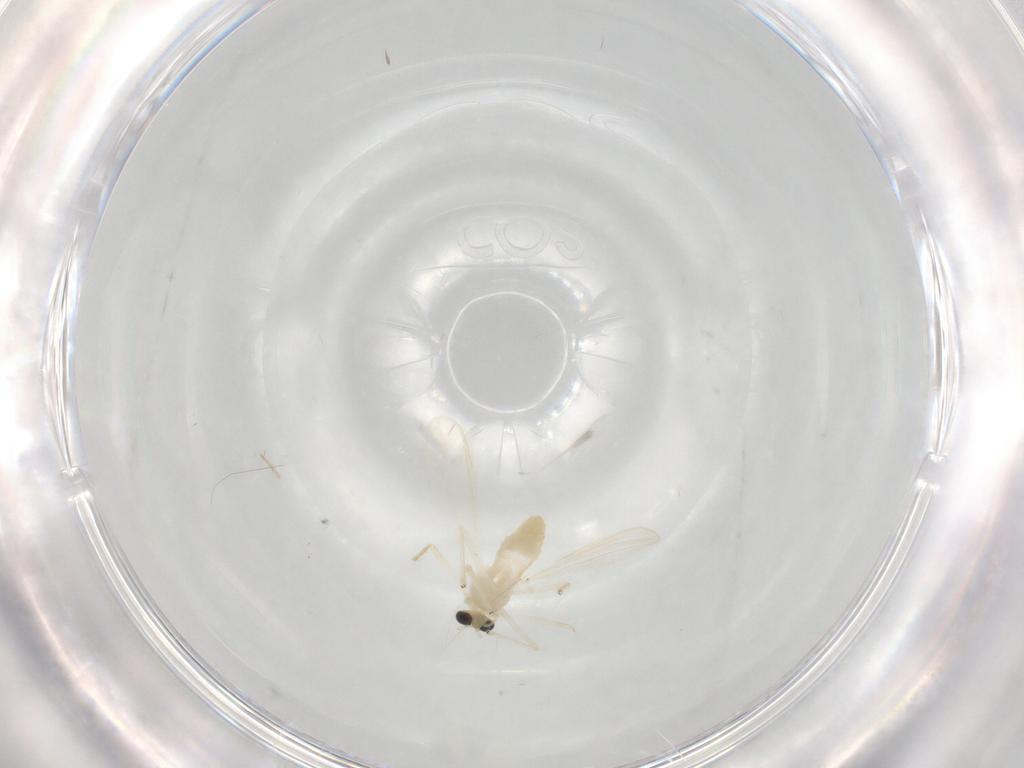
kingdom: Animalia
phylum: Arthropoda
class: Insecta
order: Diptera
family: Chironomidae
